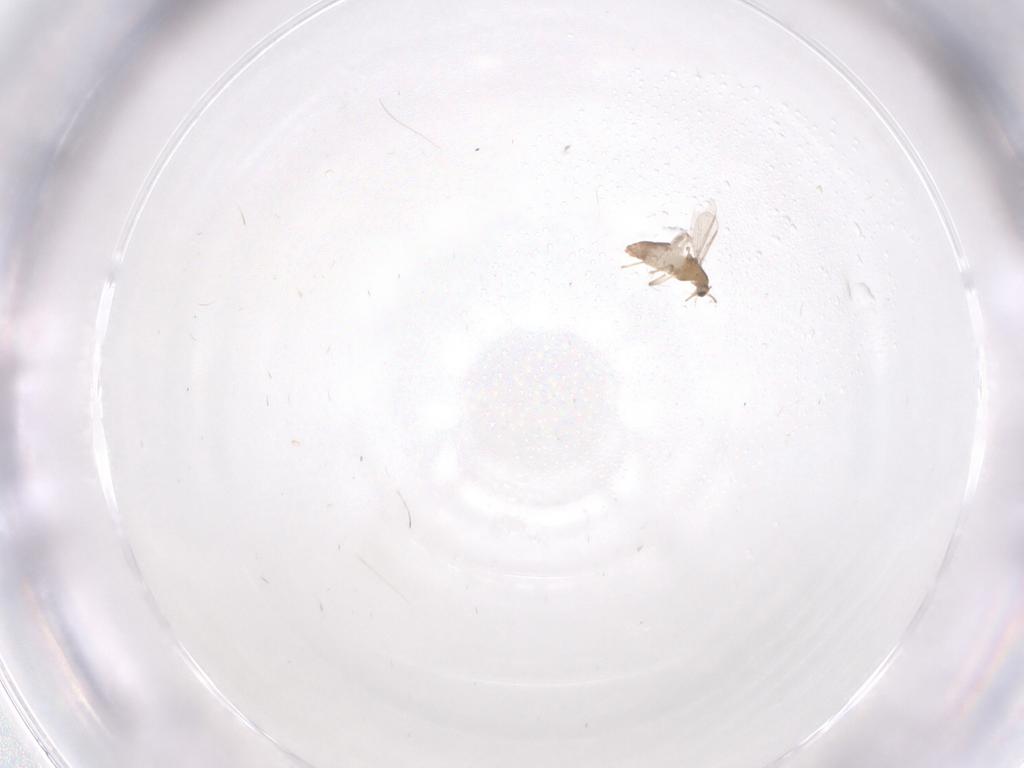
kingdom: Animalia
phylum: Arthropoda
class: Insecta
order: Diptera
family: Chironomidae
